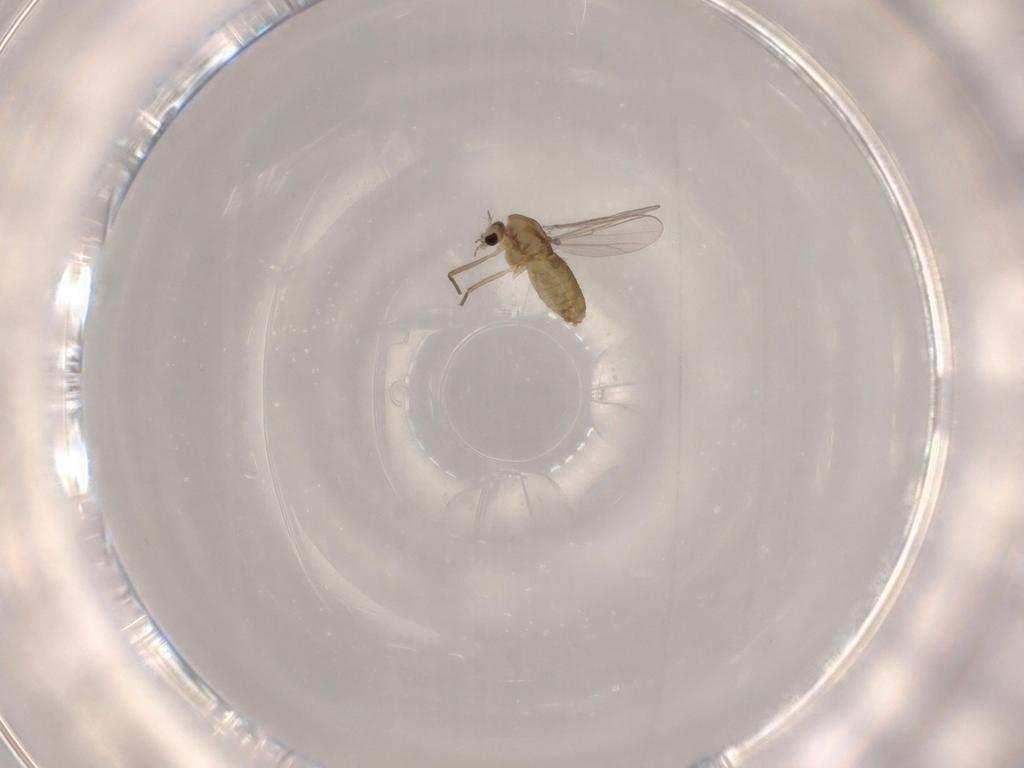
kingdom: Animalia
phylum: Arthropoda
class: Insecta
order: Diptera
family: Chironomidae
